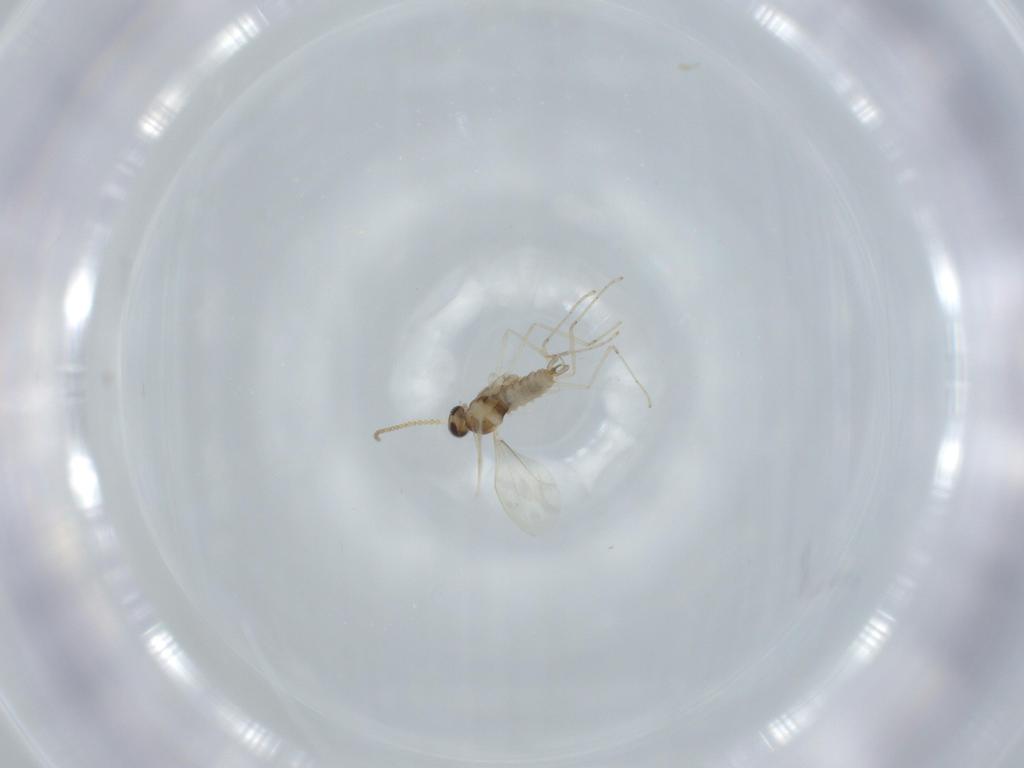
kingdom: Animalia
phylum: Arthropoda
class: Insecta
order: Diptera
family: Cecidomyiidae
